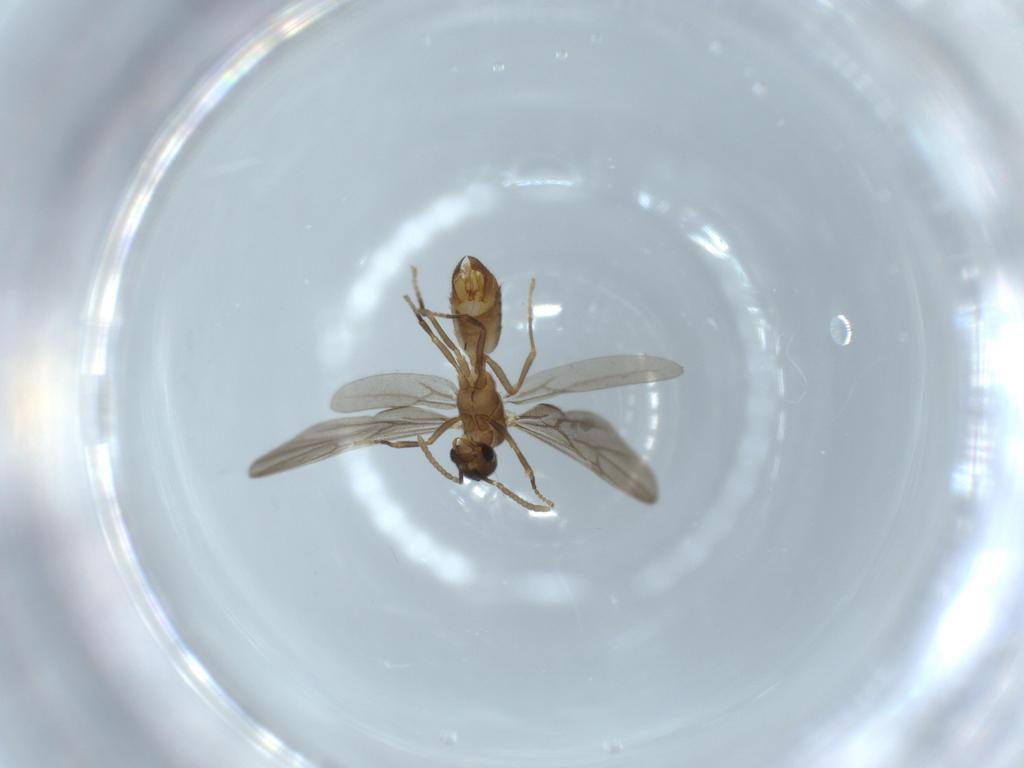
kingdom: Animalia
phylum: Arthropoda
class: Insecta
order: Hymenoptera
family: Formicidae
